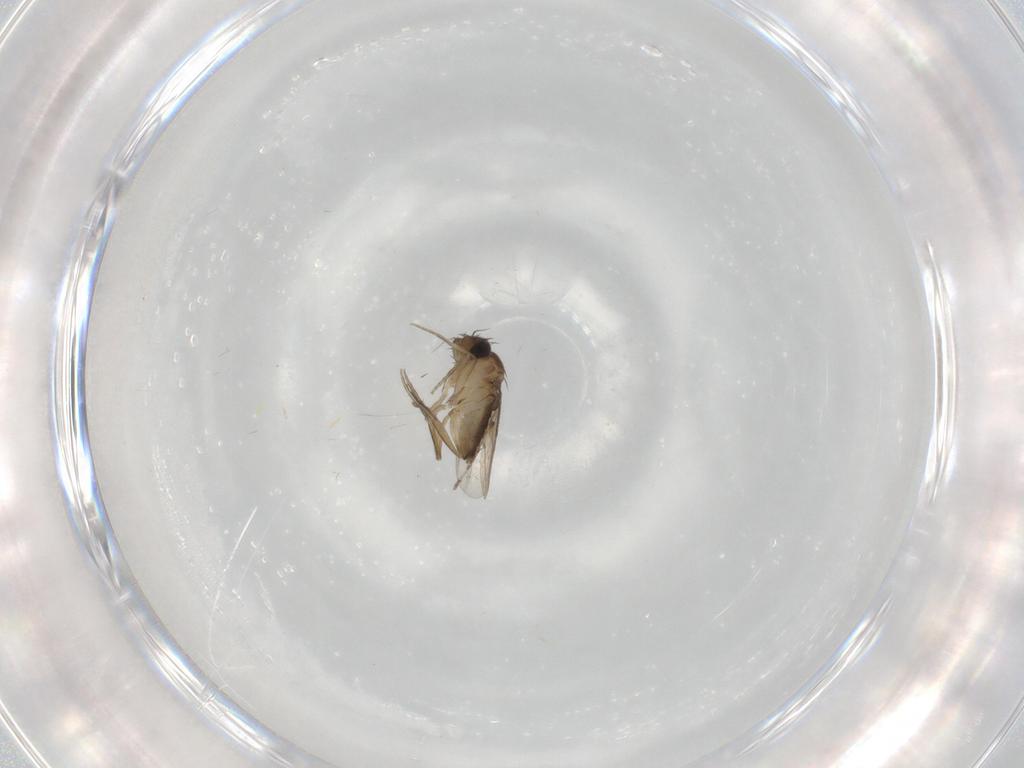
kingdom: Animalia
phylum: Arthropoda
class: Insecta
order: Diptera
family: Phoridae
